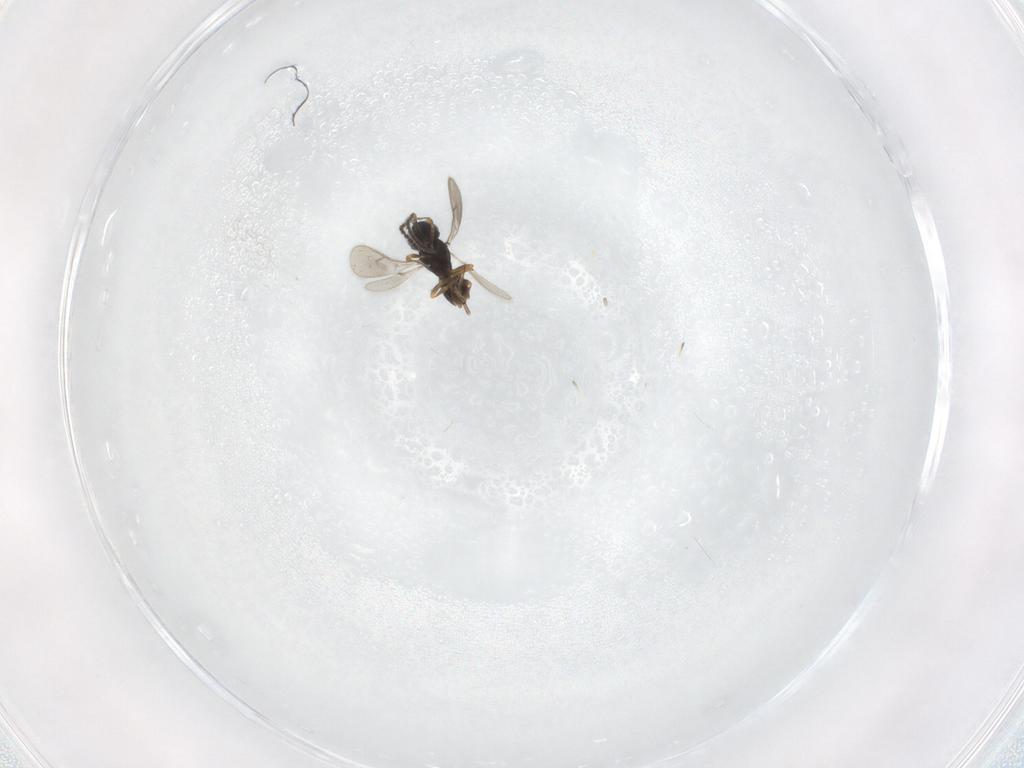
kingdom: Animalia
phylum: Arthropoda
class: Insecta
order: Hymenoptera
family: Scelionidae
